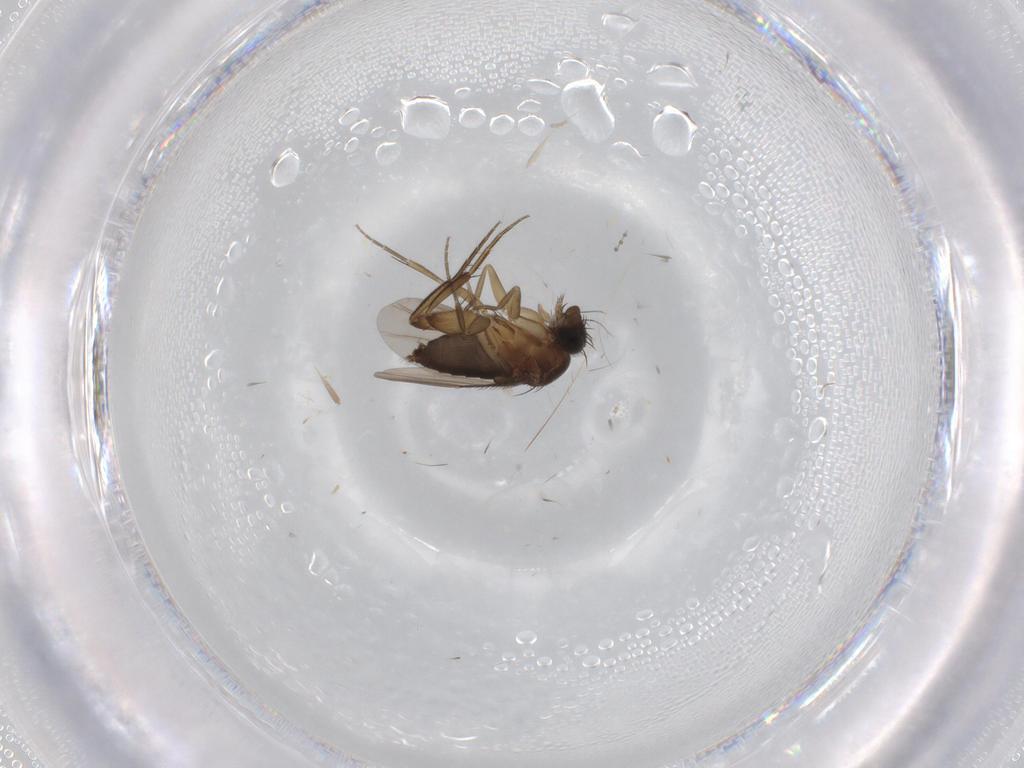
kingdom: Animalia
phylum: Arthropoda
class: Insecta
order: Diptera
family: Phoridae
